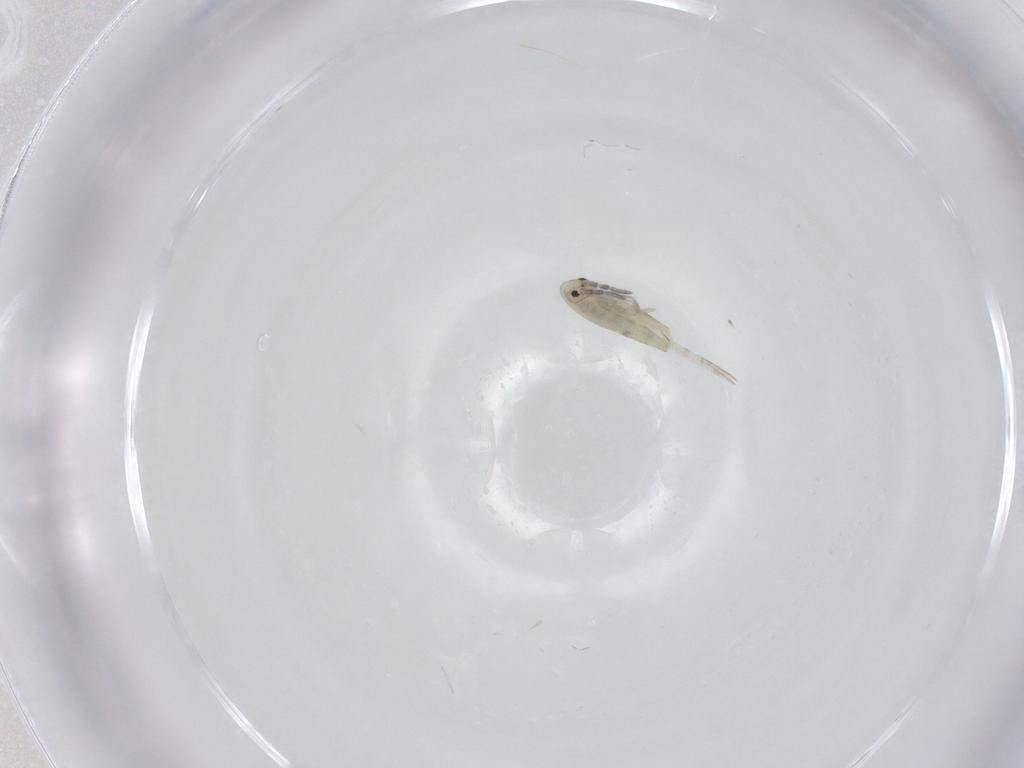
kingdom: Animalia
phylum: Arthropoda
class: Collembola
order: Entomobryomorpha
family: Entomobryidae
